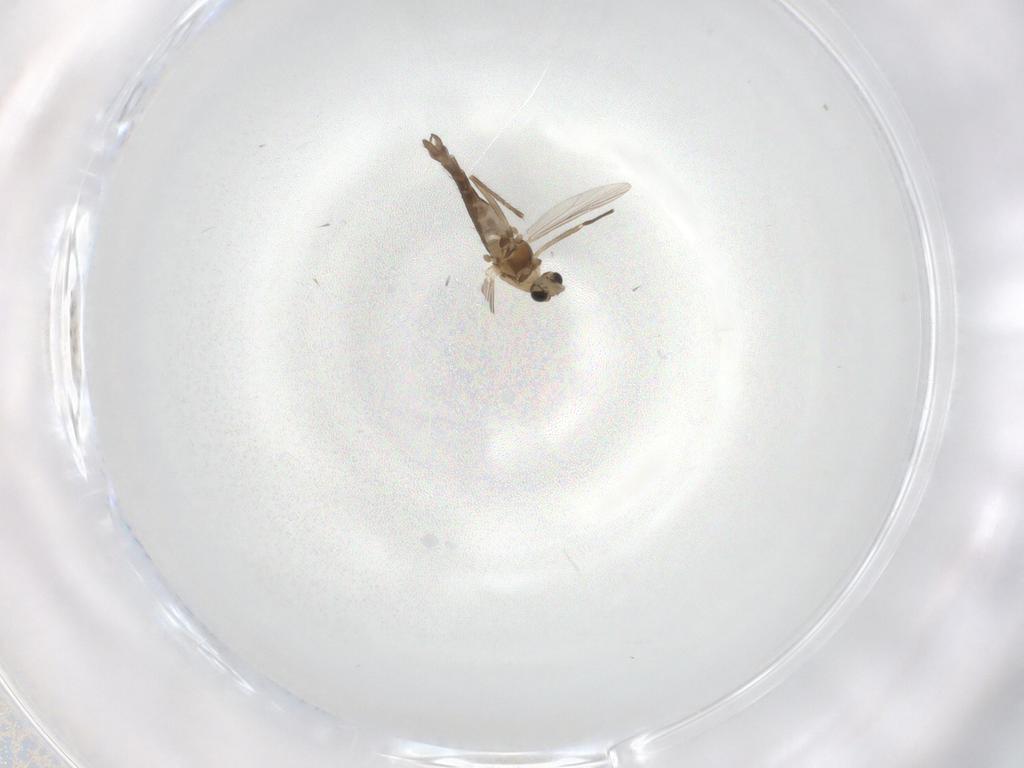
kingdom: Animalia
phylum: Arthropoda
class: Insecta
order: Diptera
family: Chironomidae
